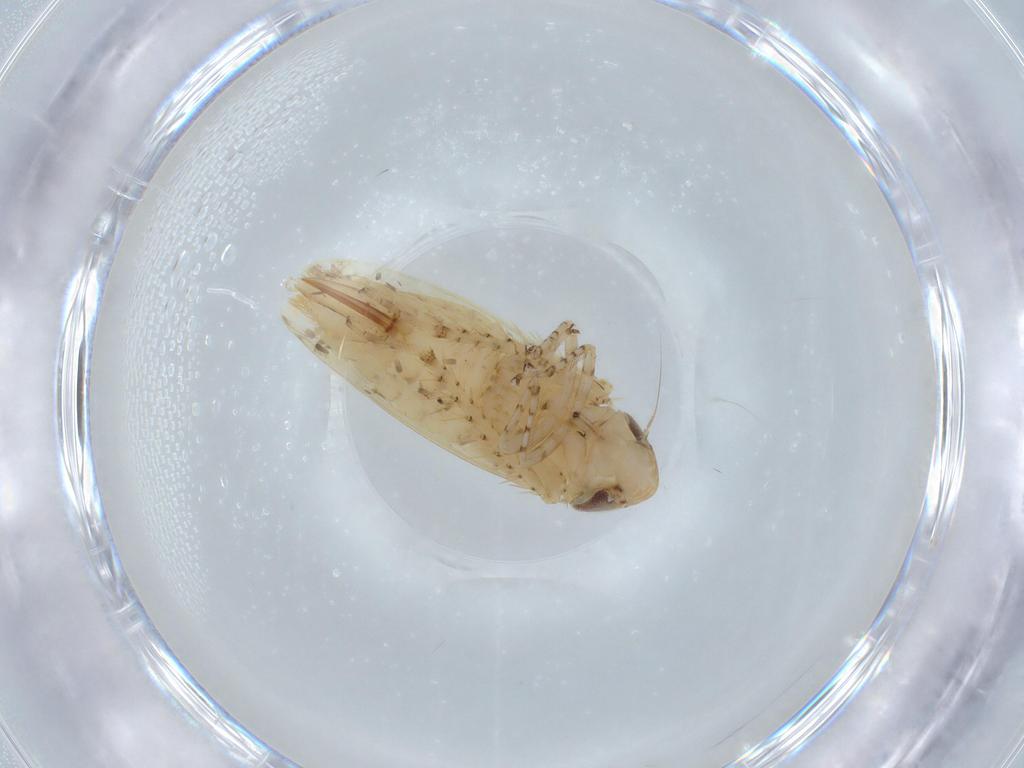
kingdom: Animalia
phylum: Arthropoda
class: Insecta
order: Hemiptera
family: Cicadellidae
